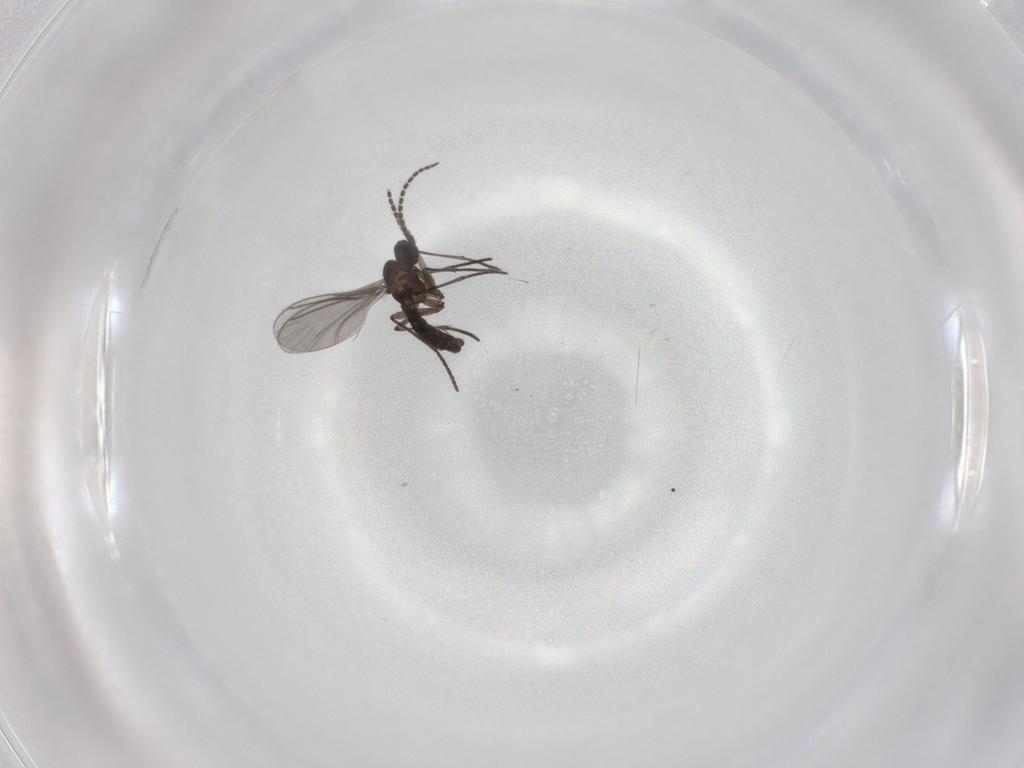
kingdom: Animalia
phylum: Arthropoda
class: Insecta
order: Diptera
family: Sciaridae
